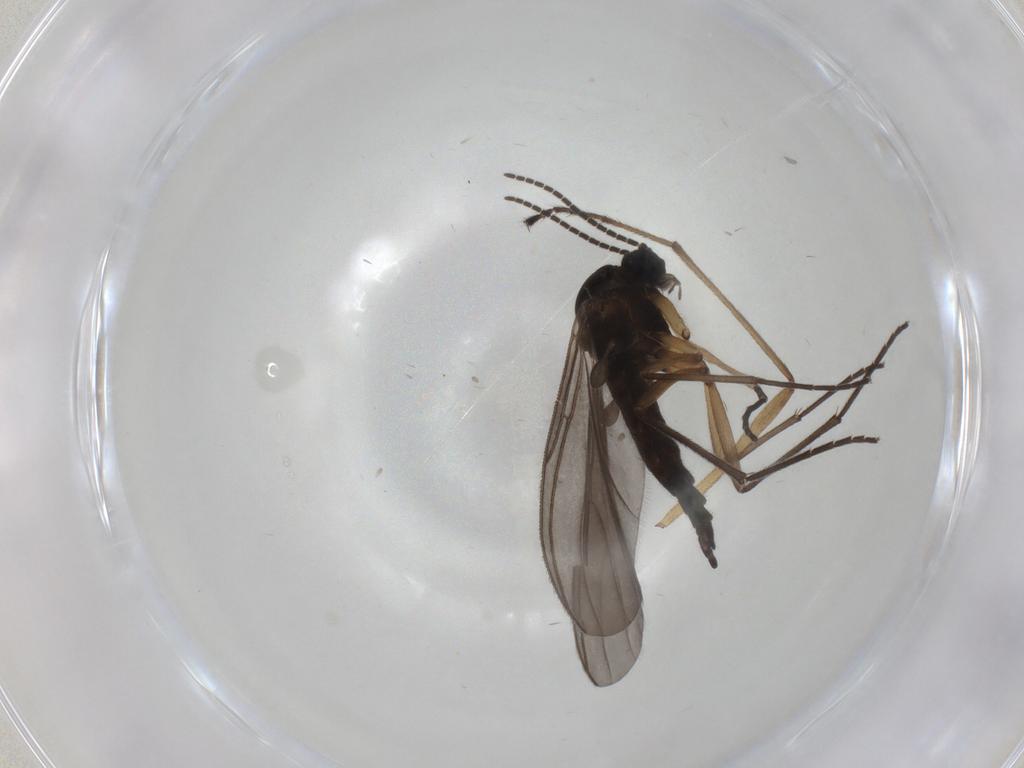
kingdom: Animalia
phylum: Arthropoda
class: Insecta
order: Diptera
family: Sciaridae
